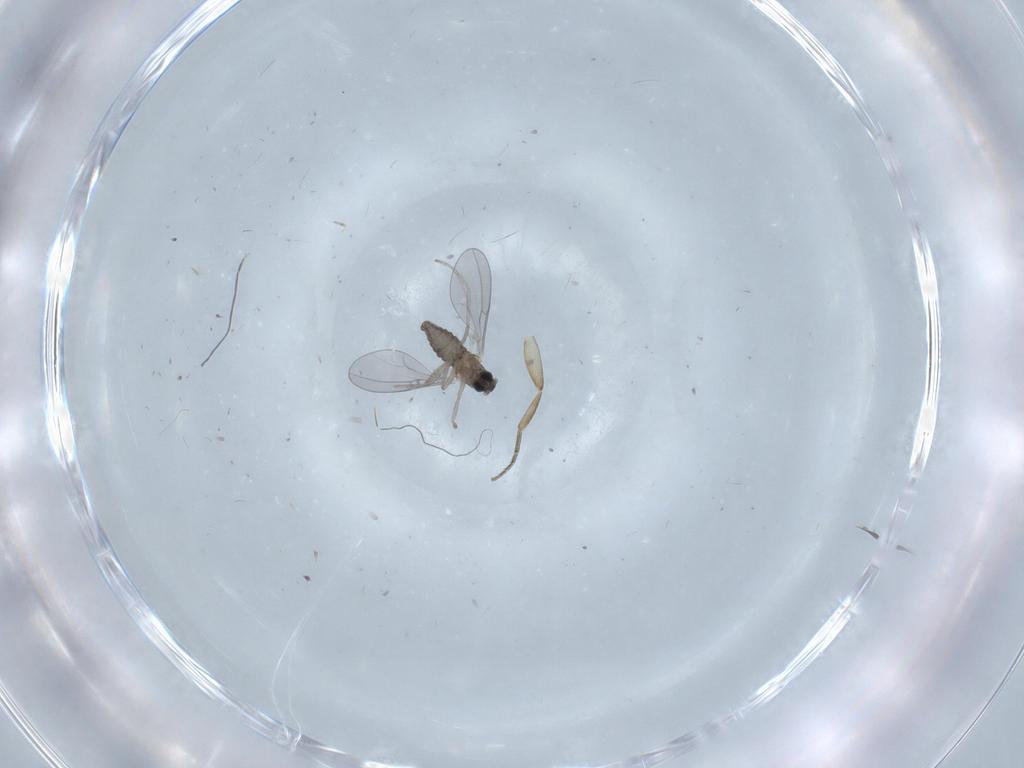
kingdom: Animalia
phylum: Arthropoda
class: Insecta
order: Diptera
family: Phoridae
